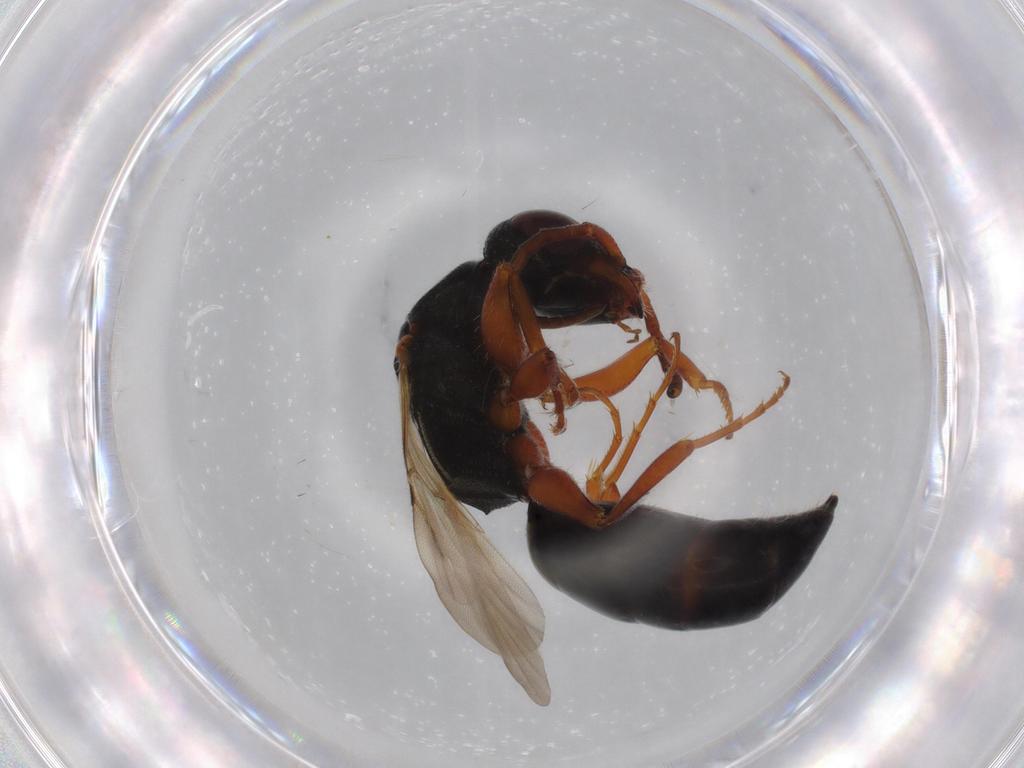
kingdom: Animalia
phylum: Arthropoda
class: Insecta
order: Hymenoptera
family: Bethylidae
